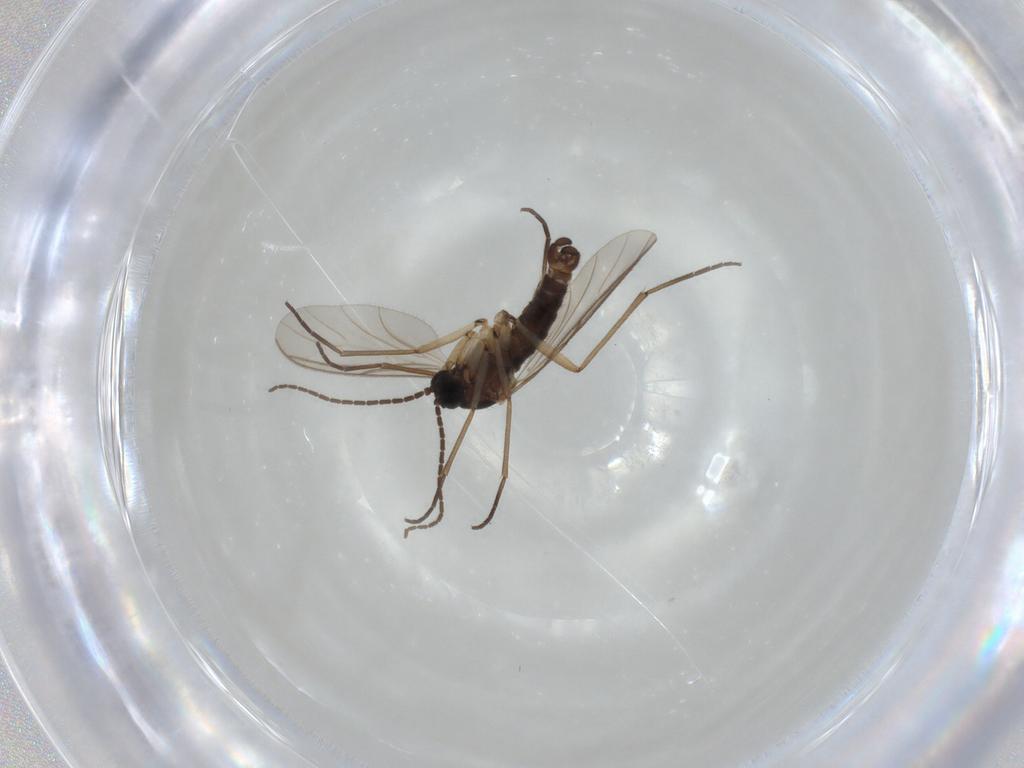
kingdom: Animalia
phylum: Arthropoda
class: Insecta
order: Diptera
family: Sciaridae
